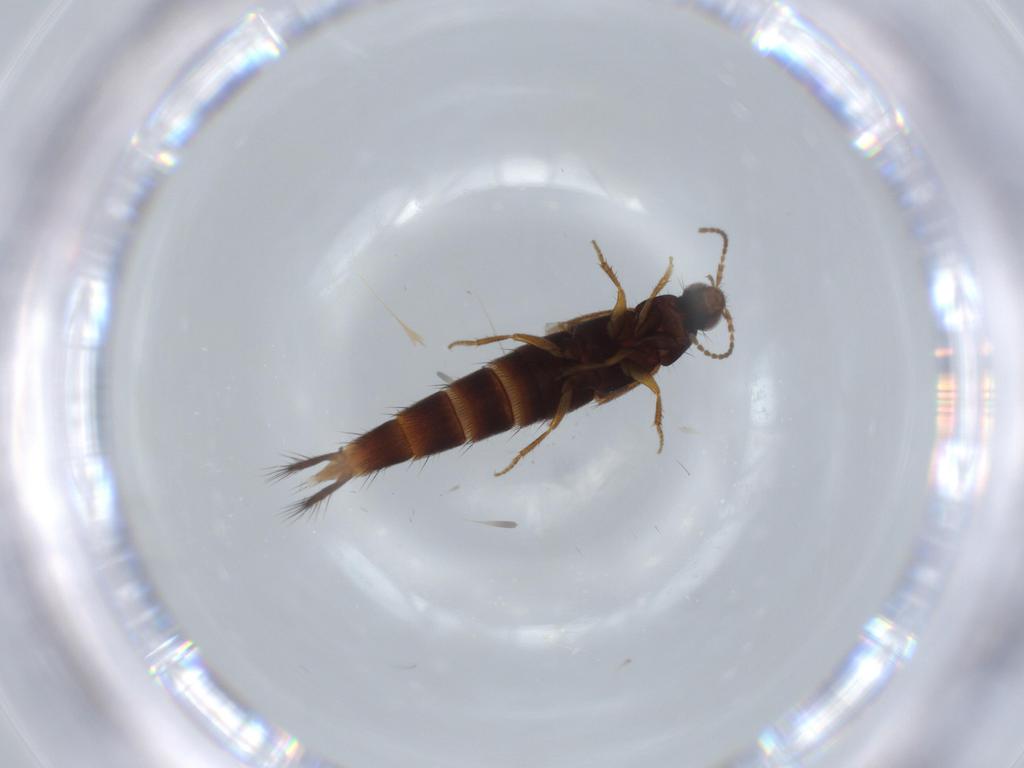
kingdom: Animalia
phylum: Arthropoda
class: Insecta
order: Coleoptera
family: Staphylinidae
